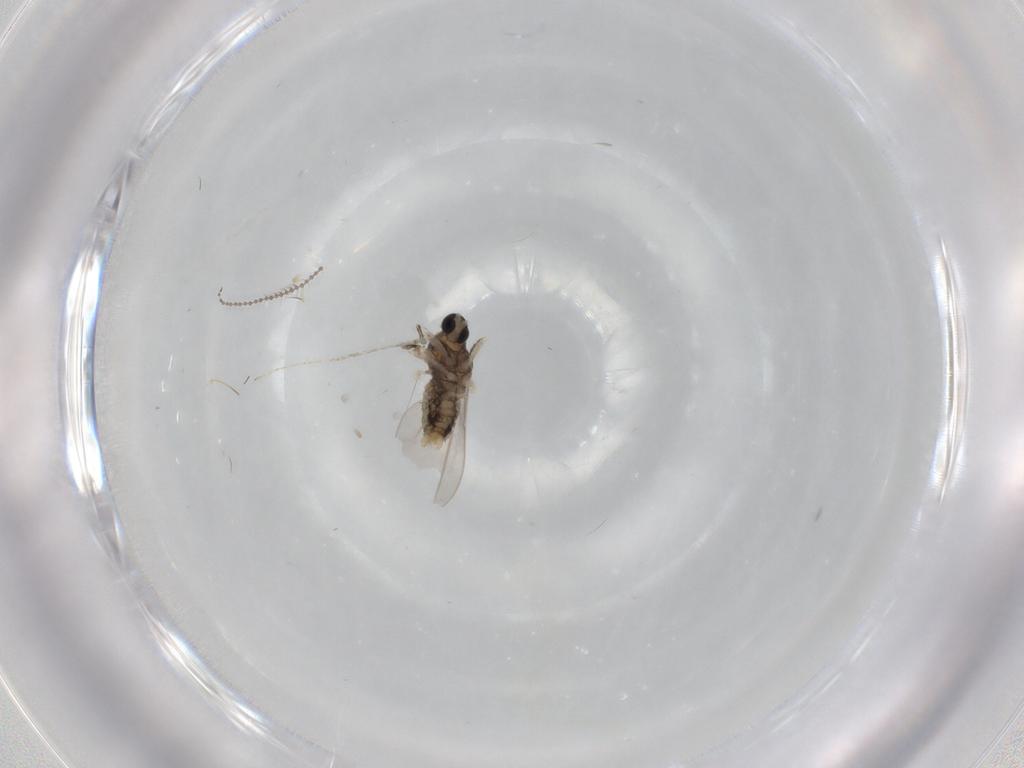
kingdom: Animalia
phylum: Arthropoda
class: Insecta
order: Diptera
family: Cecidomyiidae
